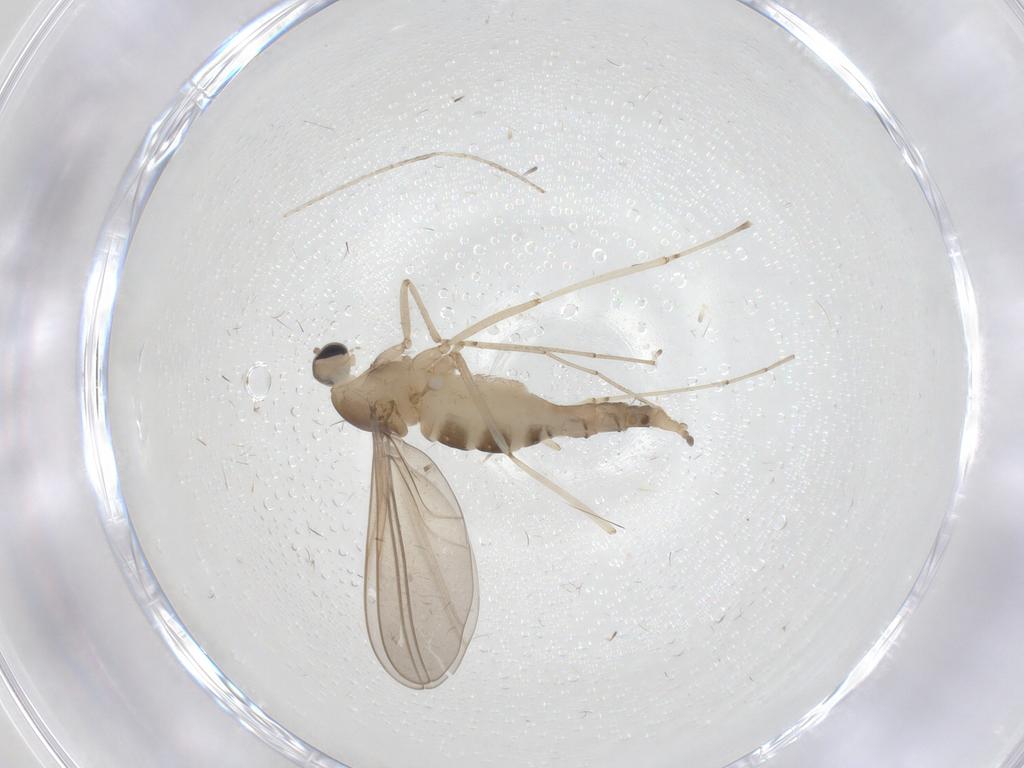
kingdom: Animalia
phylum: Arthropoda
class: Insecta
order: Diptera
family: Cecidomyiidae
